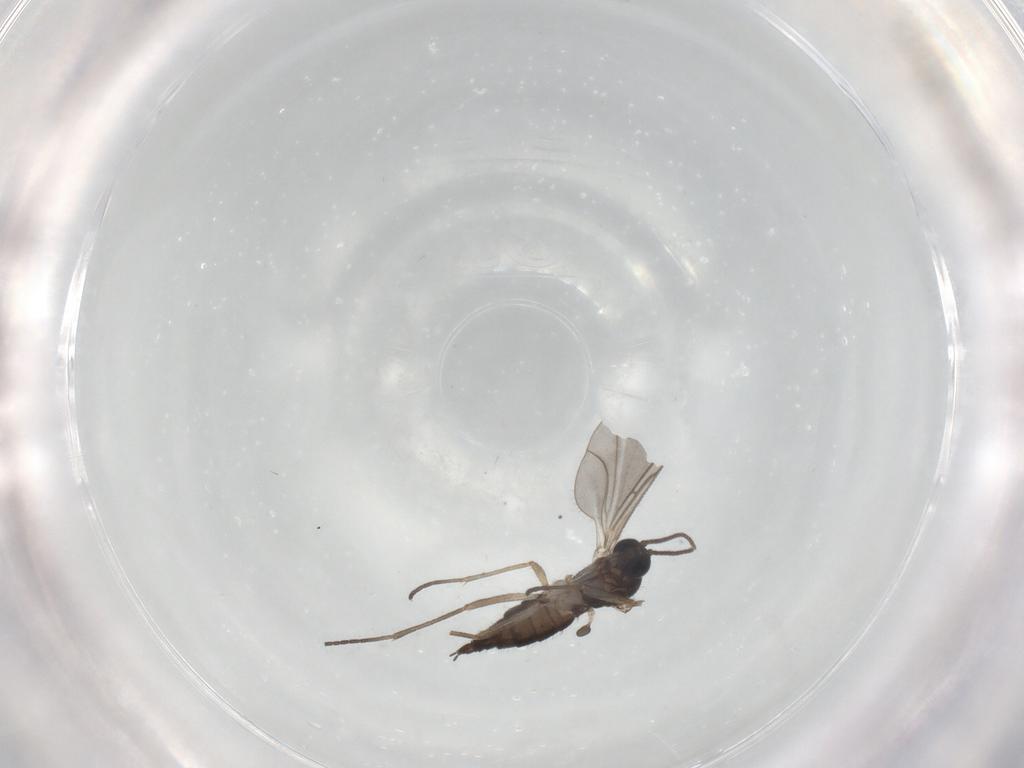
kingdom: Animalia
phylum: Arthropoda
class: Insecta
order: Diptera
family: Sciaridae
